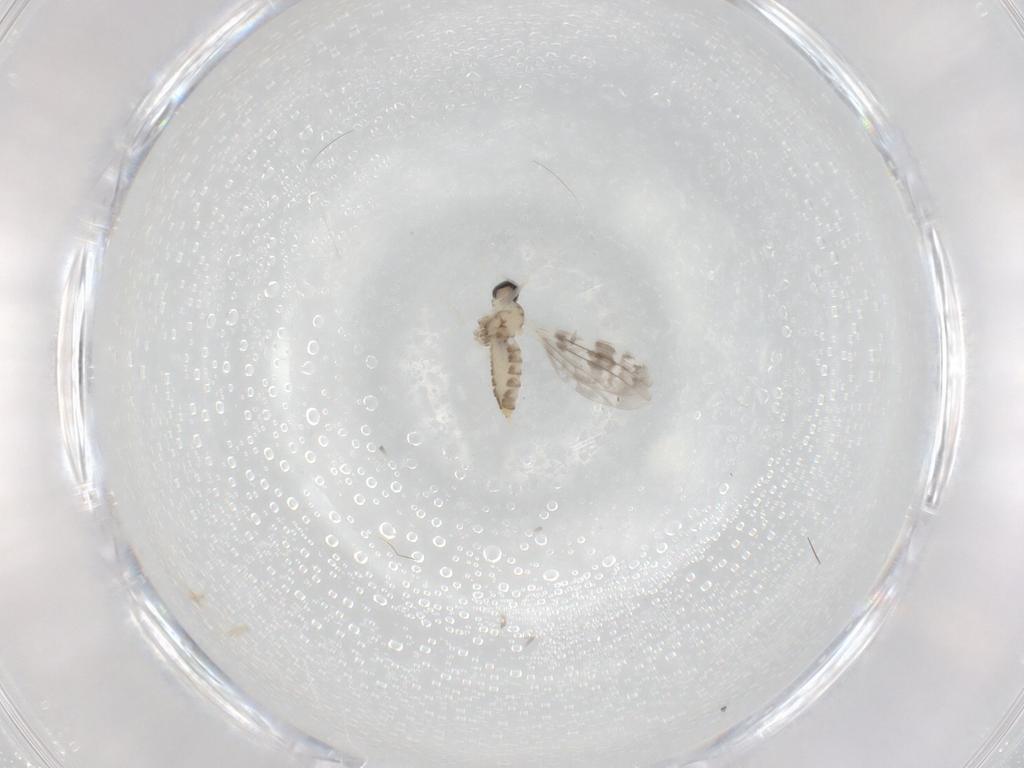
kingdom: Animalia
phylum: Arthropoda
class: Insecta
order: Diptera
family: Cecidomyiidae
